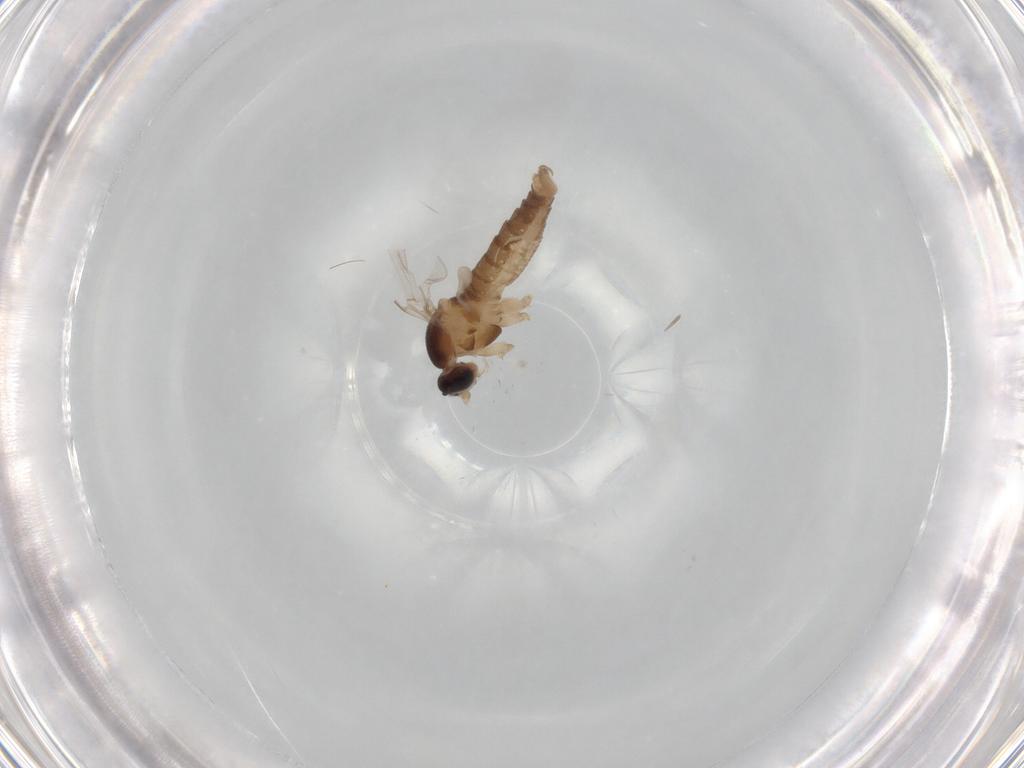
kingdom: Animalia
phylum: Arthropoda
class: Insecta
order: Diptera
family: Cecidomyiidae
